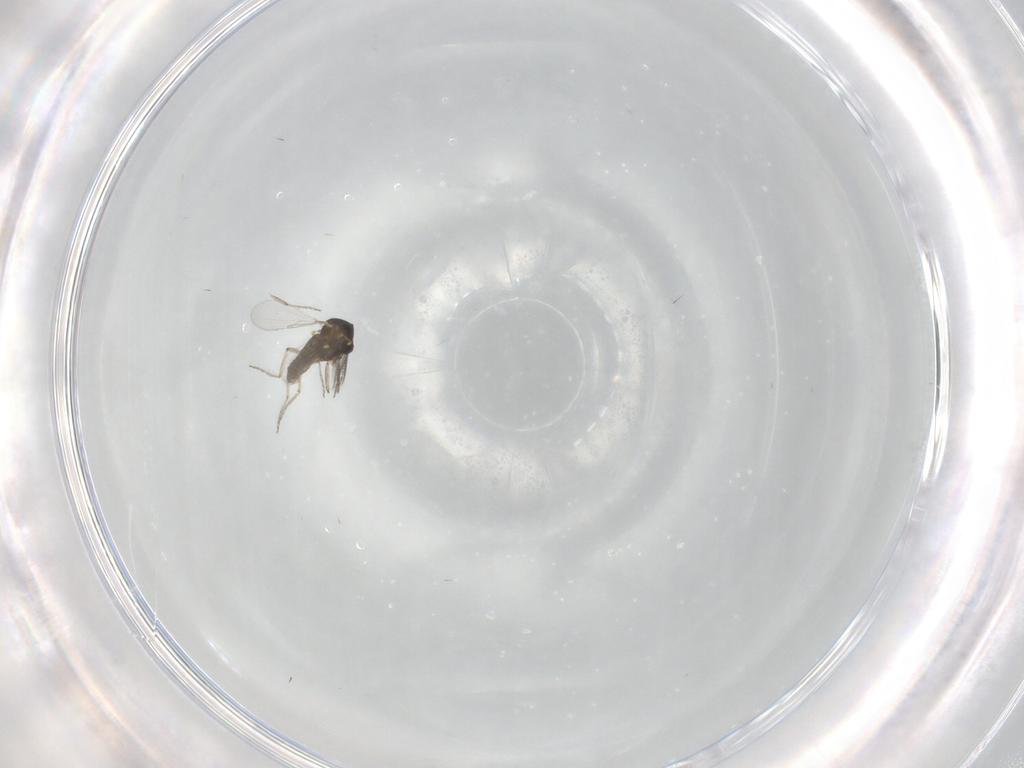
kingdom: Animalia
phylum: Arthropoda
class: Insecta
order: Diptera
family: Ceratopogonidae
